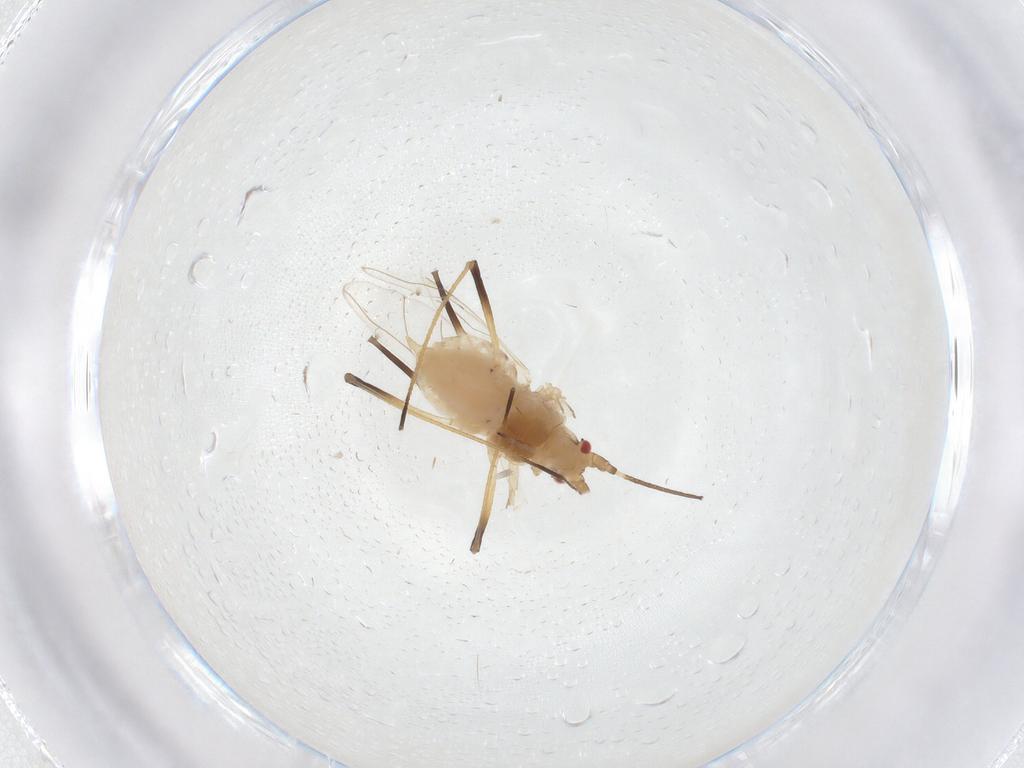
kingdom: Animalia
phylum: Arthropoda
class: Insecta
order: Hemiptera
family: Aphididae
